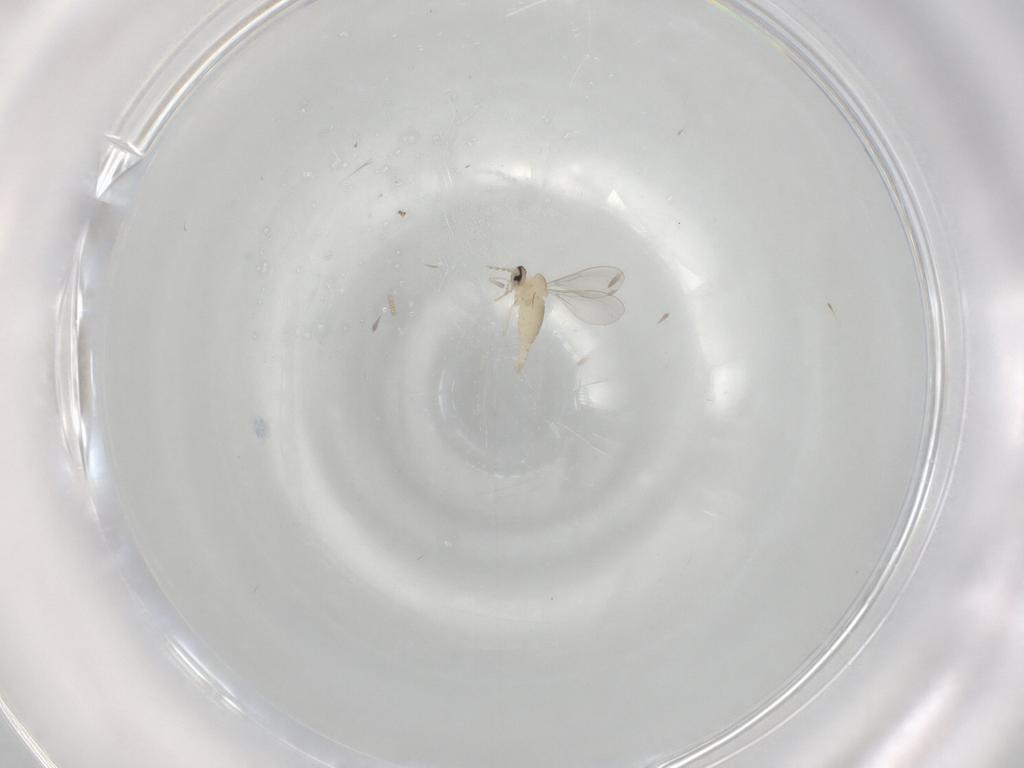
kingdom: Animalia
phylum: Arthropoda
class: Insecta
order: Diptera
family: Cecidomyiidae
